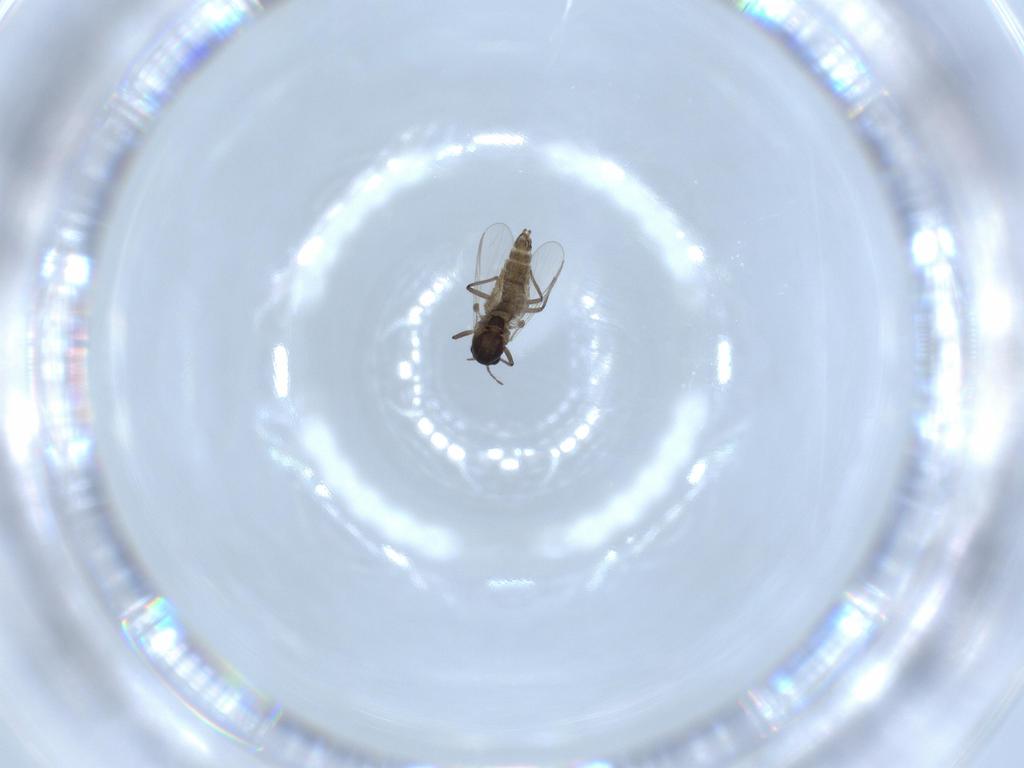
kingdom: Animalia
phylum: Arthropoda
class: Insecta
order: Diptera
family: Chironomidae
